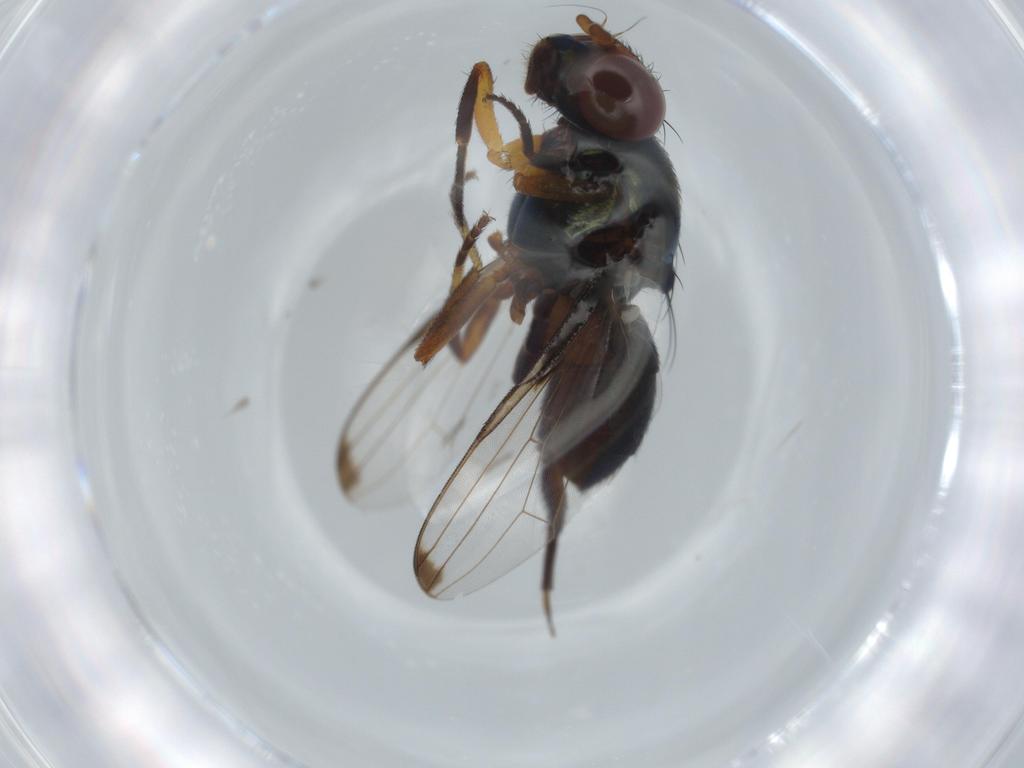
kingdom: Animalia
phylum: Arthropoda
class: Insecta
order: Diptera
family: Ulidiidae
